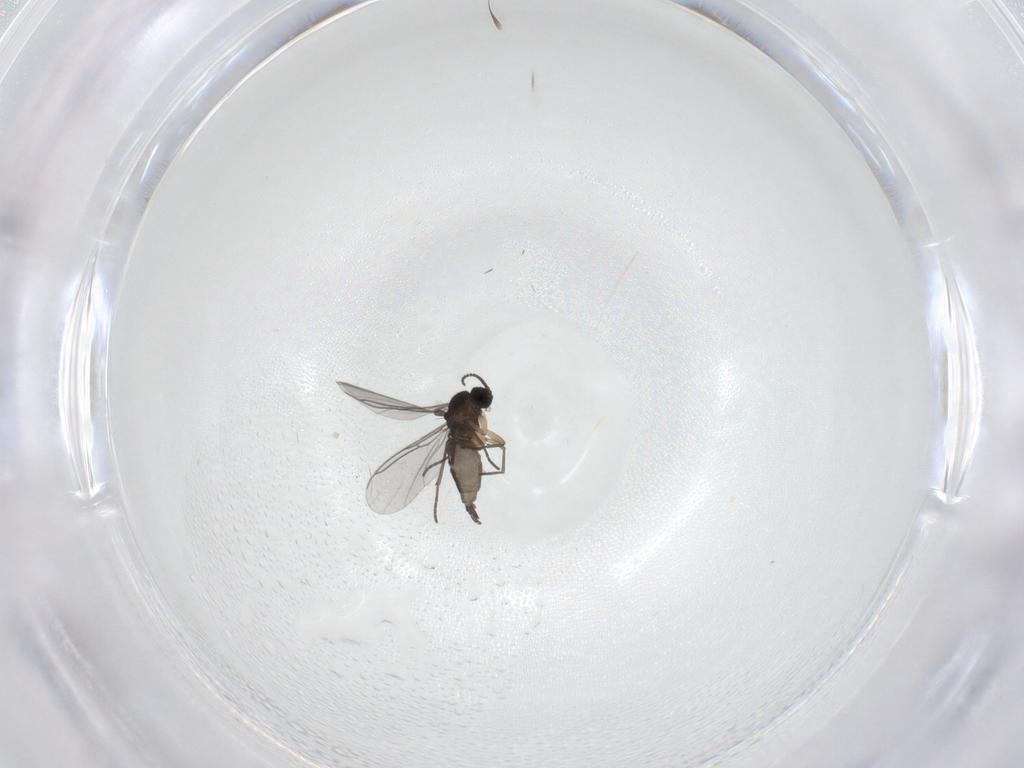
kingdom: Animalia
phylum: Arthropoda
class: Insecta
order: Diptera
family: Sciaridae
